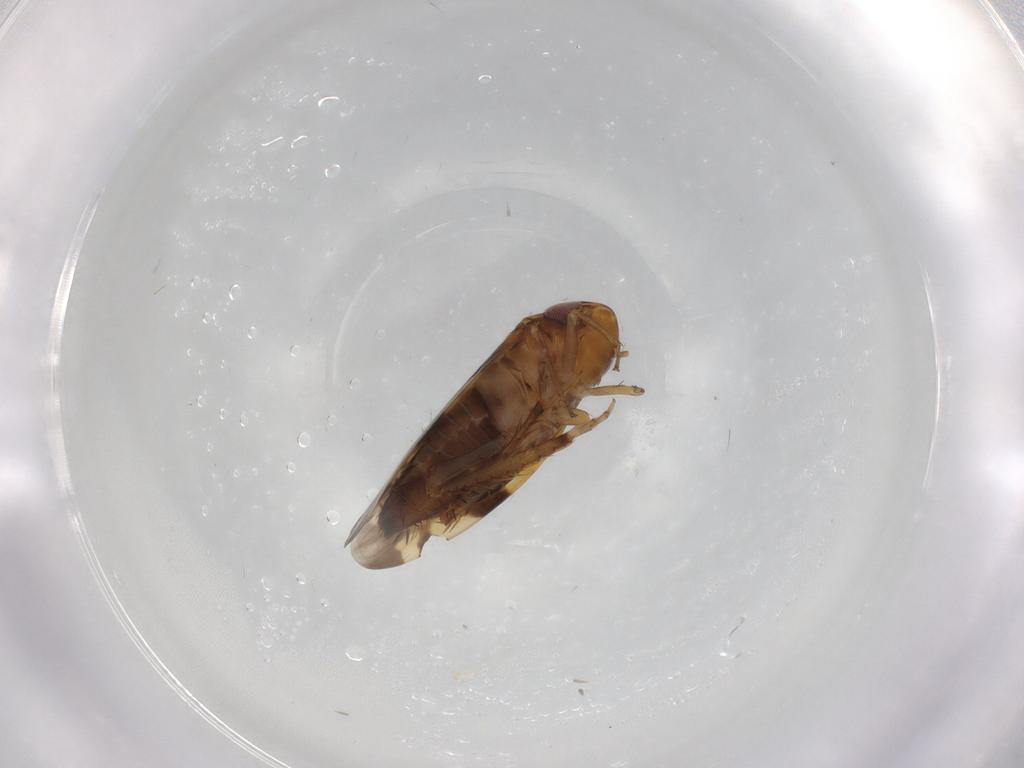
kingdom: Animalia
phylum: Arthropoda
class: Insecta
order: Hemiptera
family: Cicadellidae
